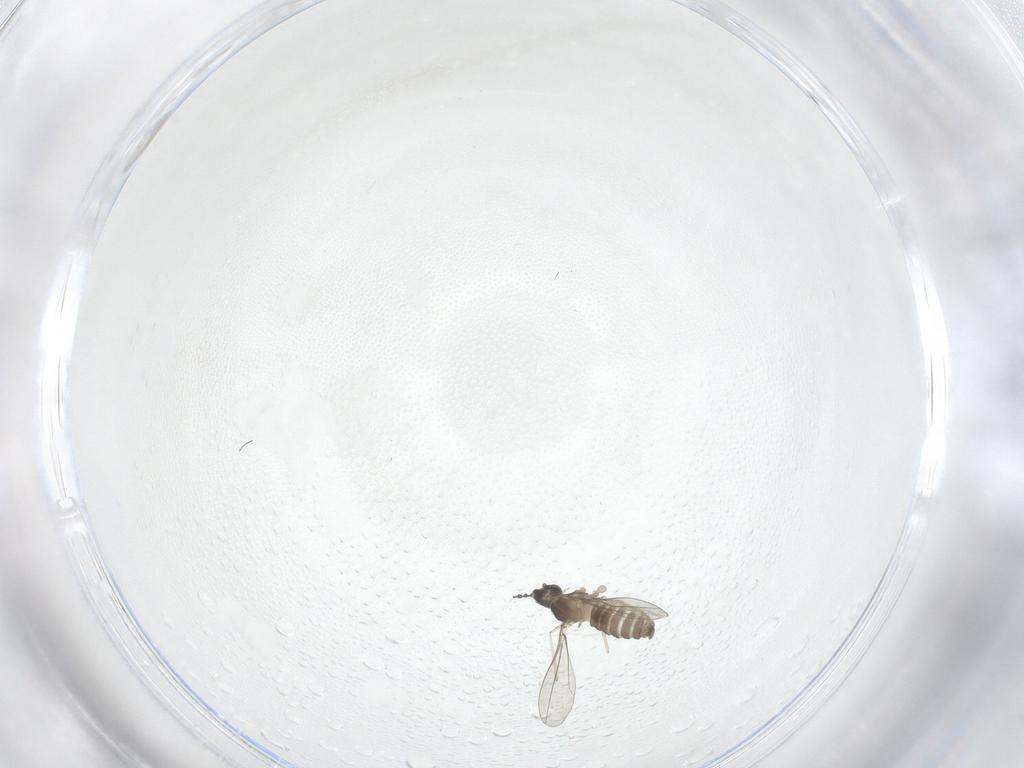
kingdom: Animalia
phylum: Arthropoda
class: Insecta
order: Diptera
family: Cecidomyiidae
